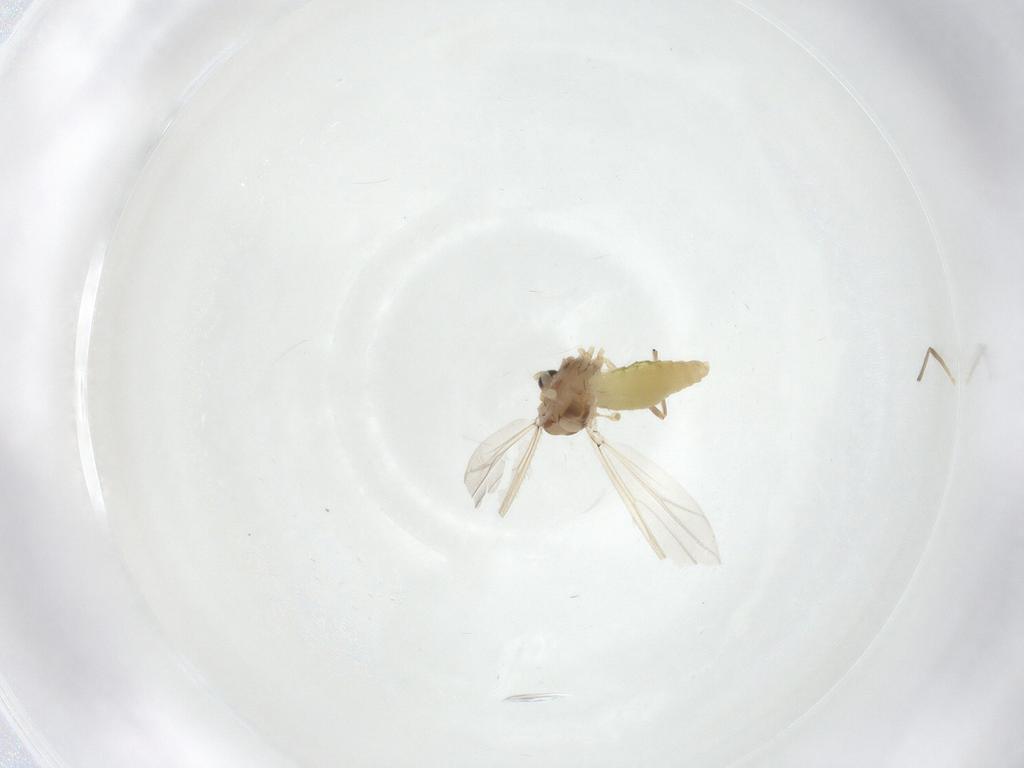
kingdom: Animalia
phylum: Arthropoda
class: Insecta
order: Diptera
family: Chironomidae
